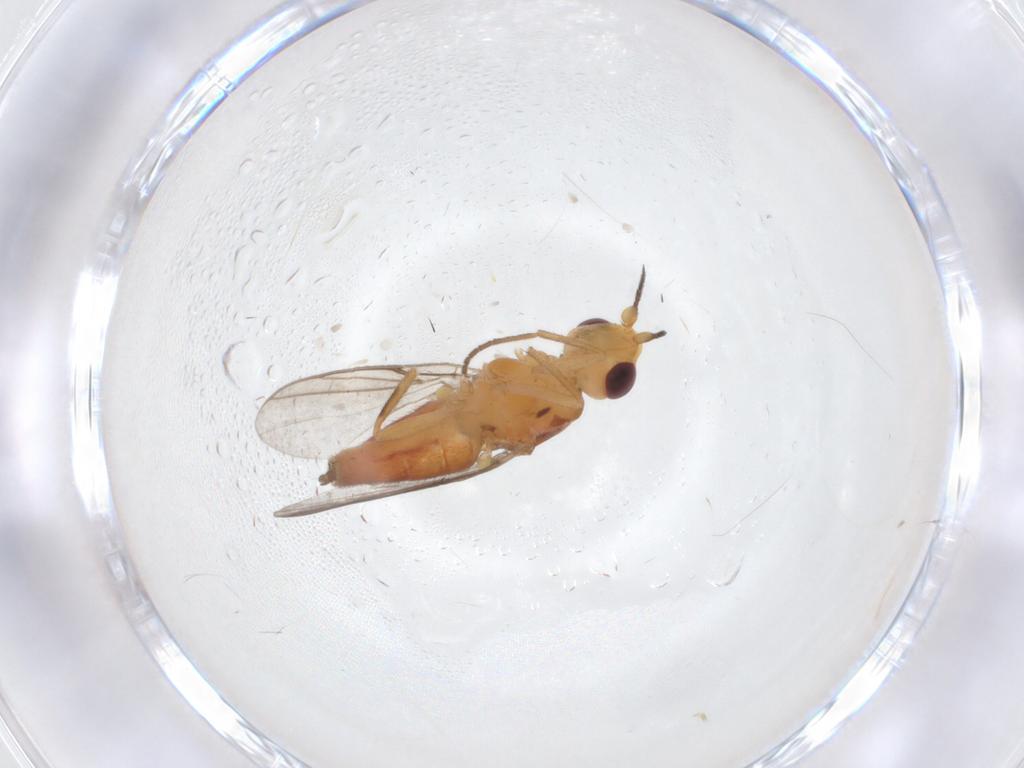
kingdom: Animalia
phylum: Arthropoda
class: Insecta
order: Diptera
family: Chloropidae
